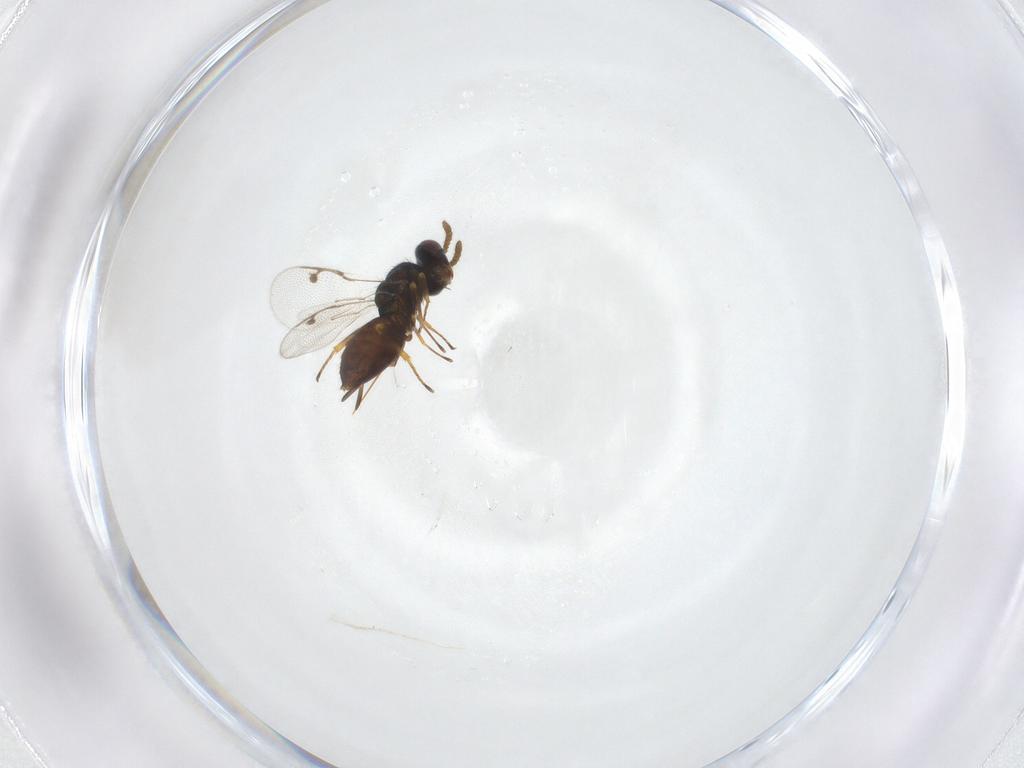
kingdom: Animalia
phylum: Arthropoda
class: Insecta
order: Hymenoptera
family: Pirenidae
